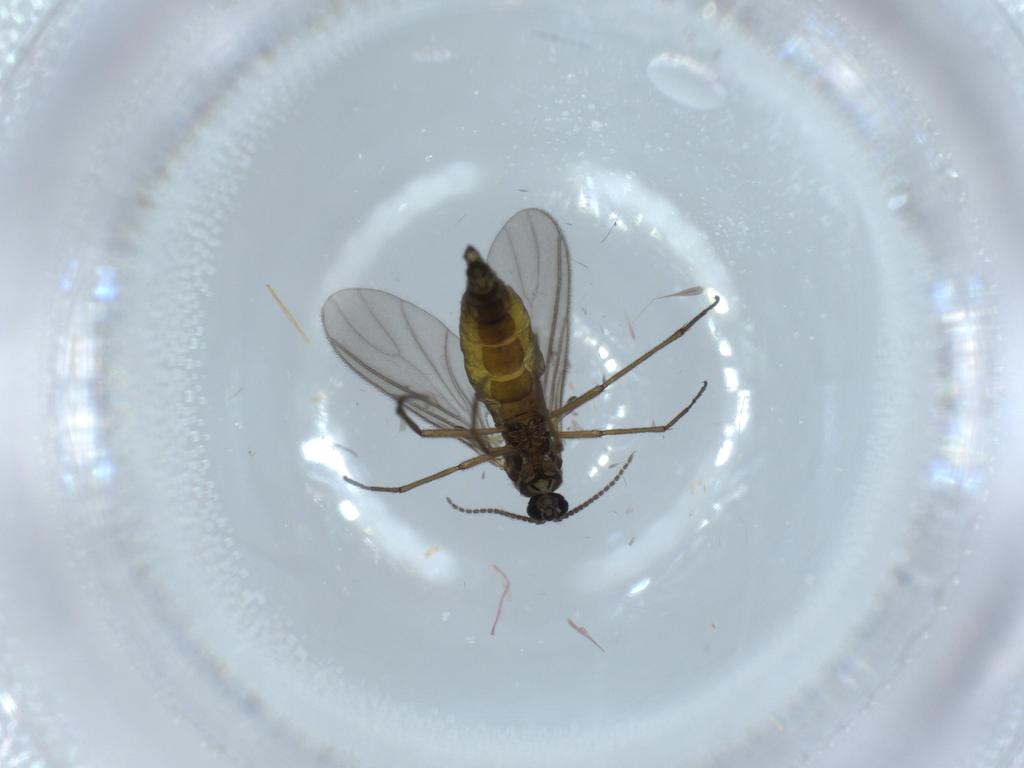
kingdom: Animalia
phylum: Arthropoda
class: Insecta
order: Diptera
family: Sciaridae
